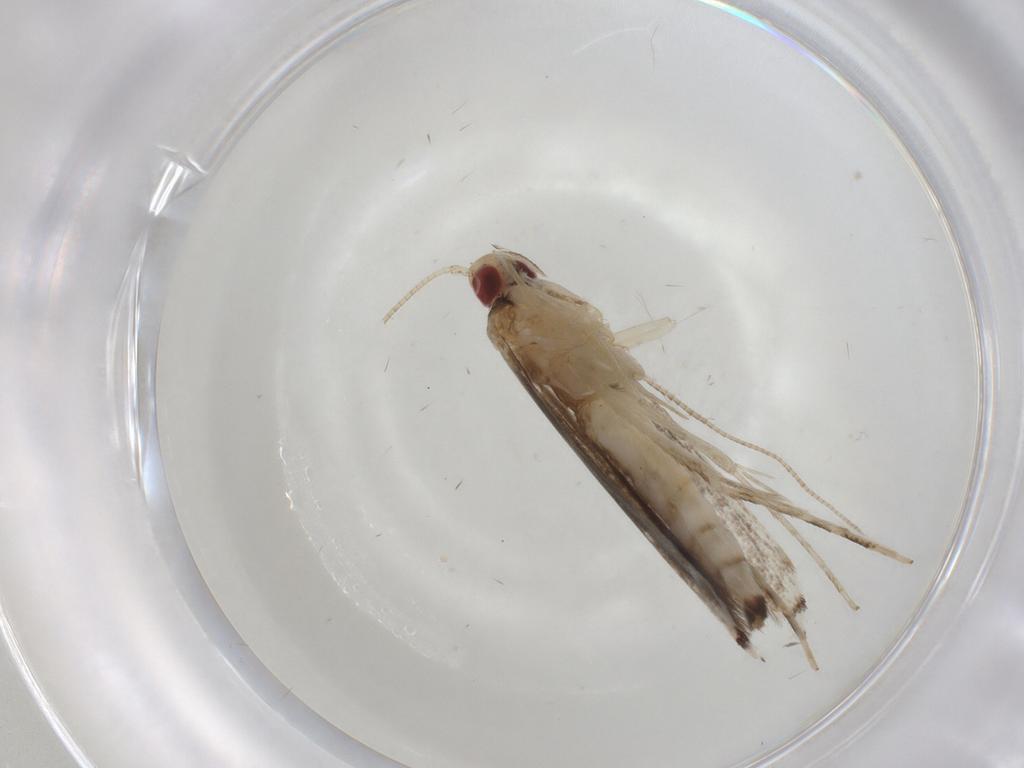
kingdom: Animalia
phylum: Arthropoda
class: Insecta
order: Lepidoptera
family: Gracillariidae
